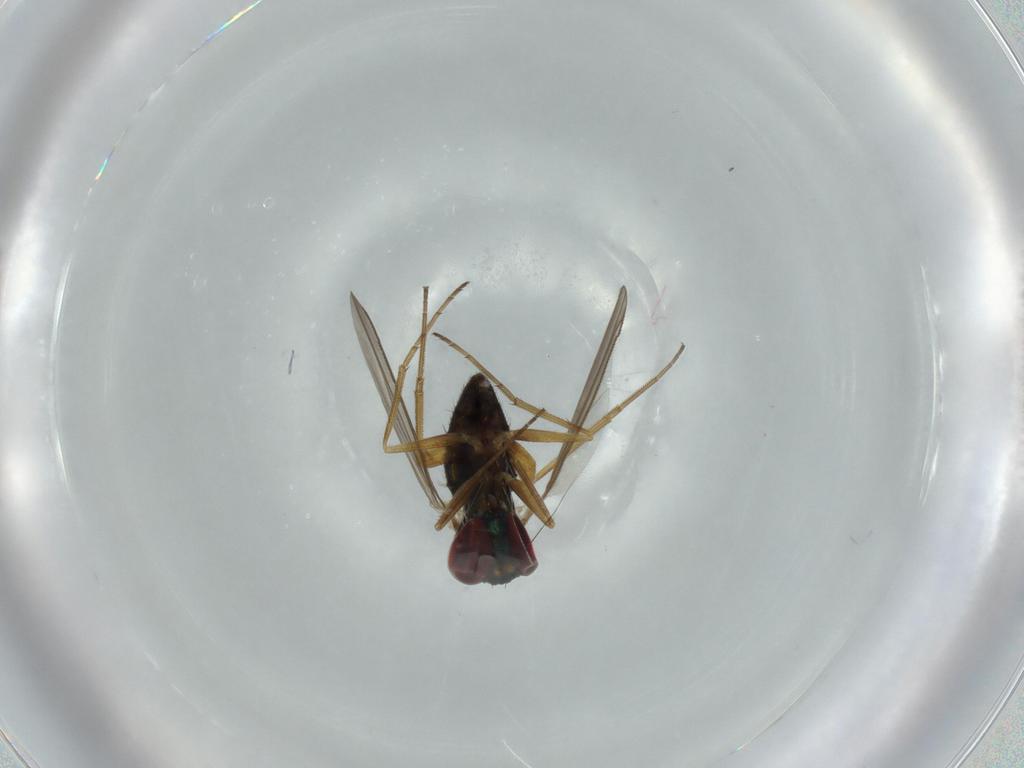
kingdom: Animalia
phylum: Arthropoda
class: Insecta
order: Diptera
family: Dolichopodidae
